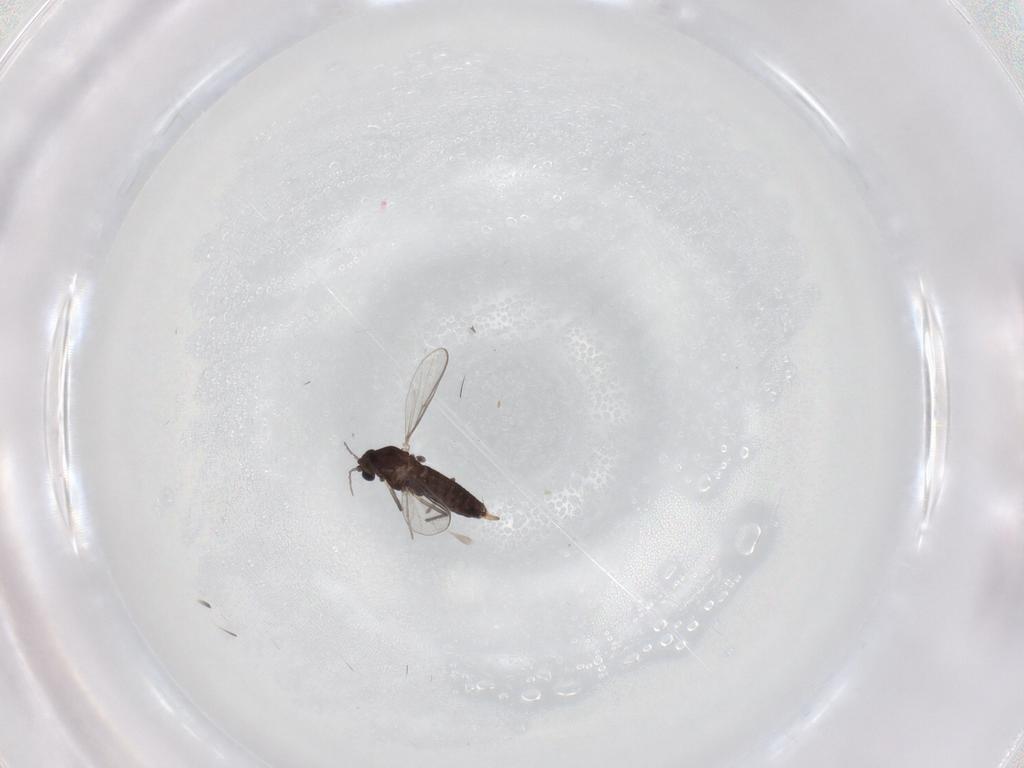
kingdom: Animalia
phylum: Arthropoda
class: Insecta
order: Diptera
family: Chironomidae
